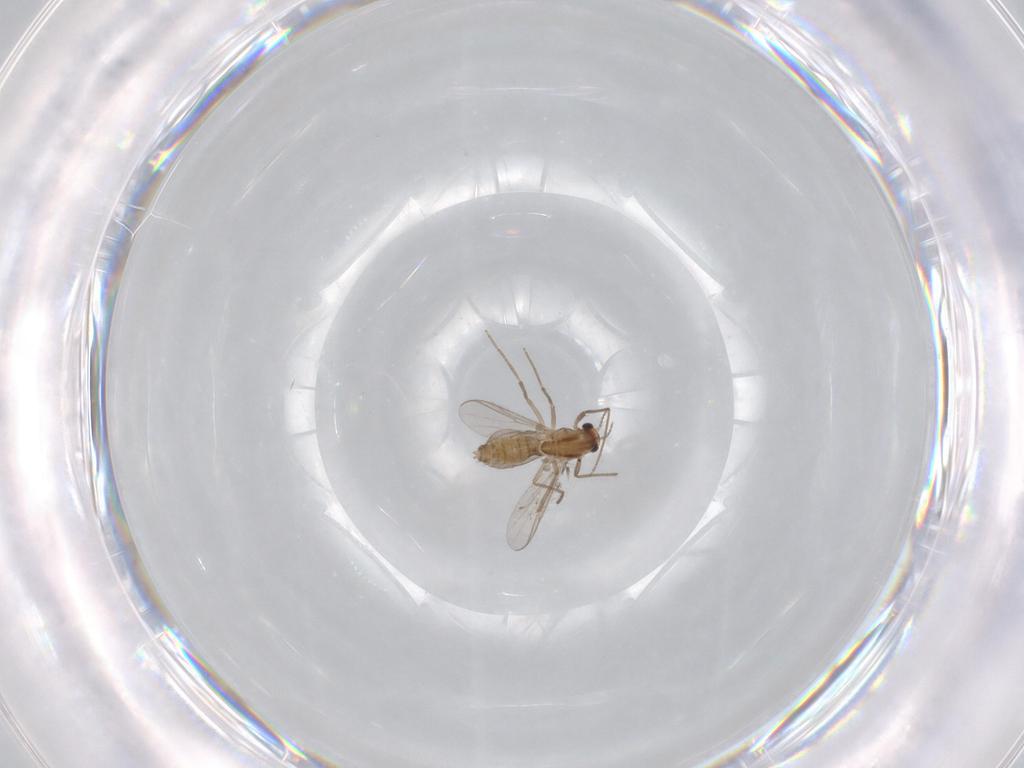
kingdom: Animalia
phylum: Arthropoda
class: Insecta
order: Diptera
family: Chironomidae
